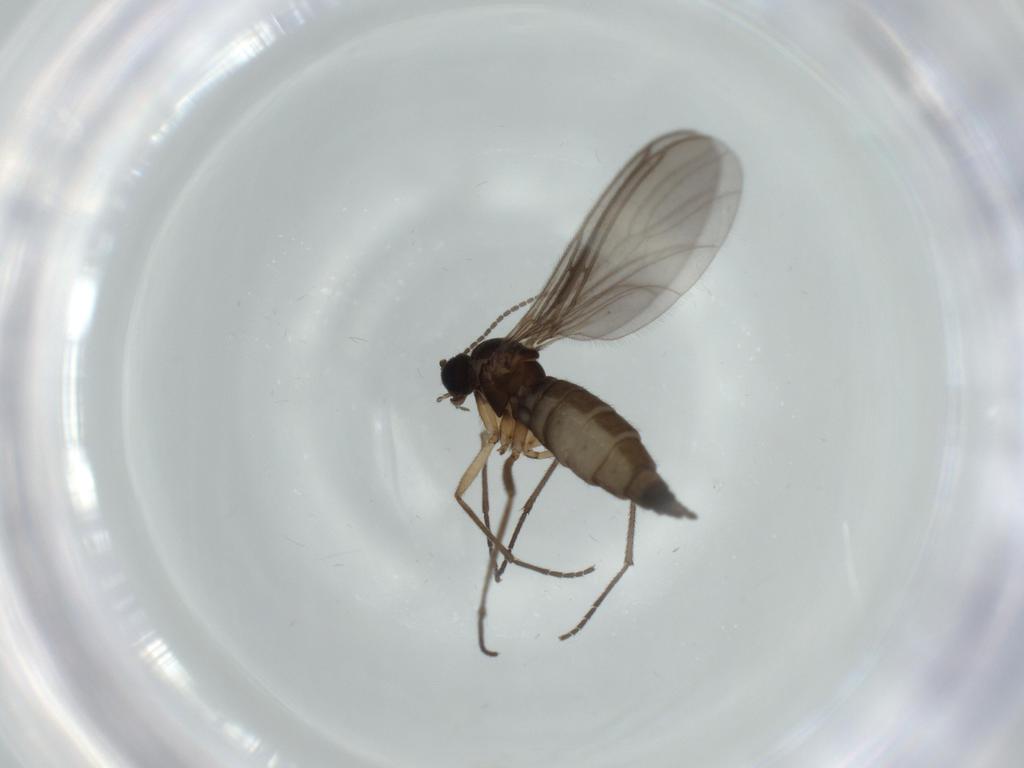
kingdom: Animalia
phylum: Arthropoda
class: Insecta
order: Diptera
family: Sciaridae
